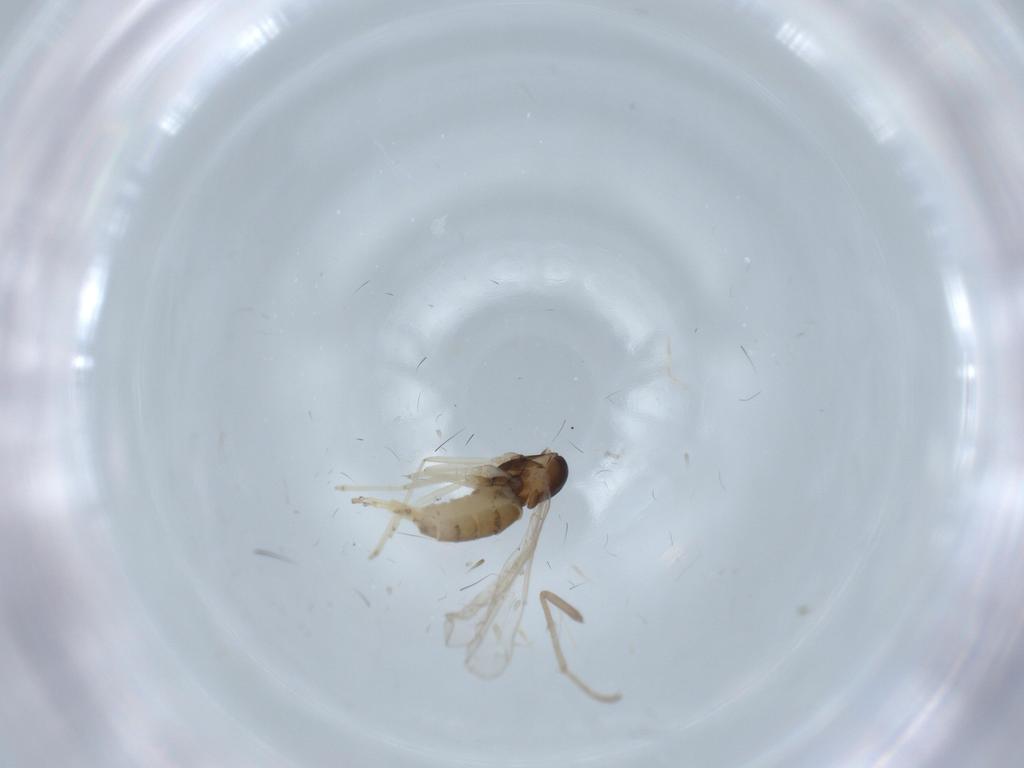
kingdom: Animalia
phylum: Arthropoda
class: Insecta
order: Diptera
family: Cecidomyiidae
